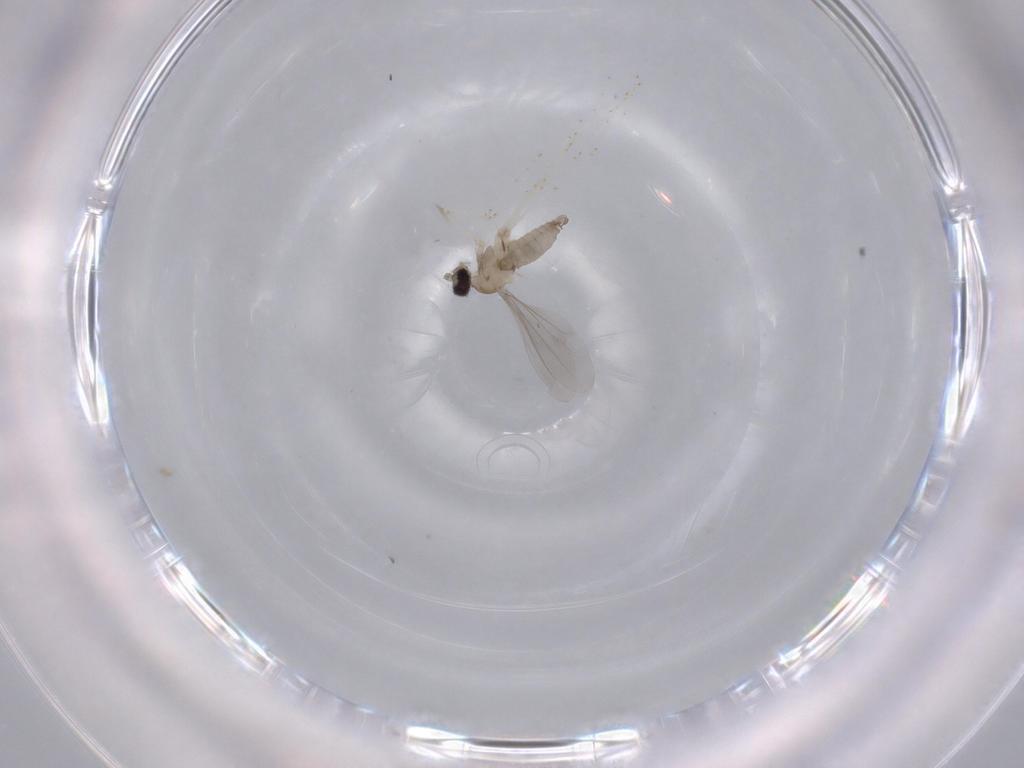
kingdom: Animalia
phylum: Arthropoda
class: Insecta
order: Diptera
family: Cecidomyiidae
